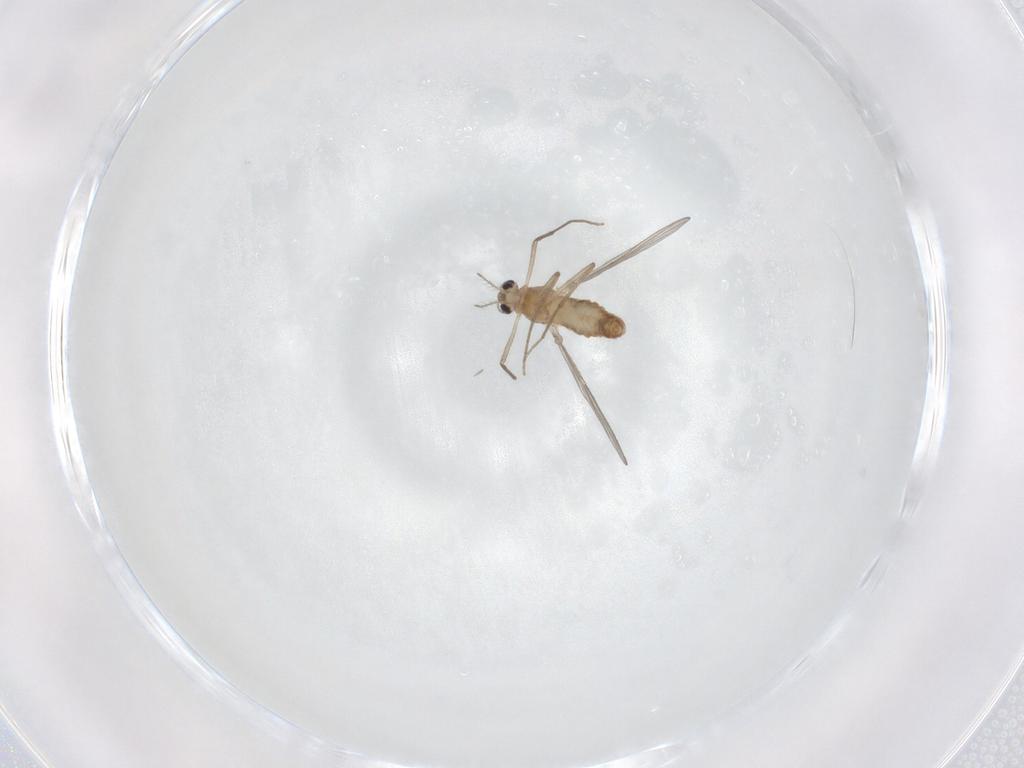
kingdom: Animalia
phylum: Arthropoda
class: Insecta
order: Diptera
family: Chironomidae
